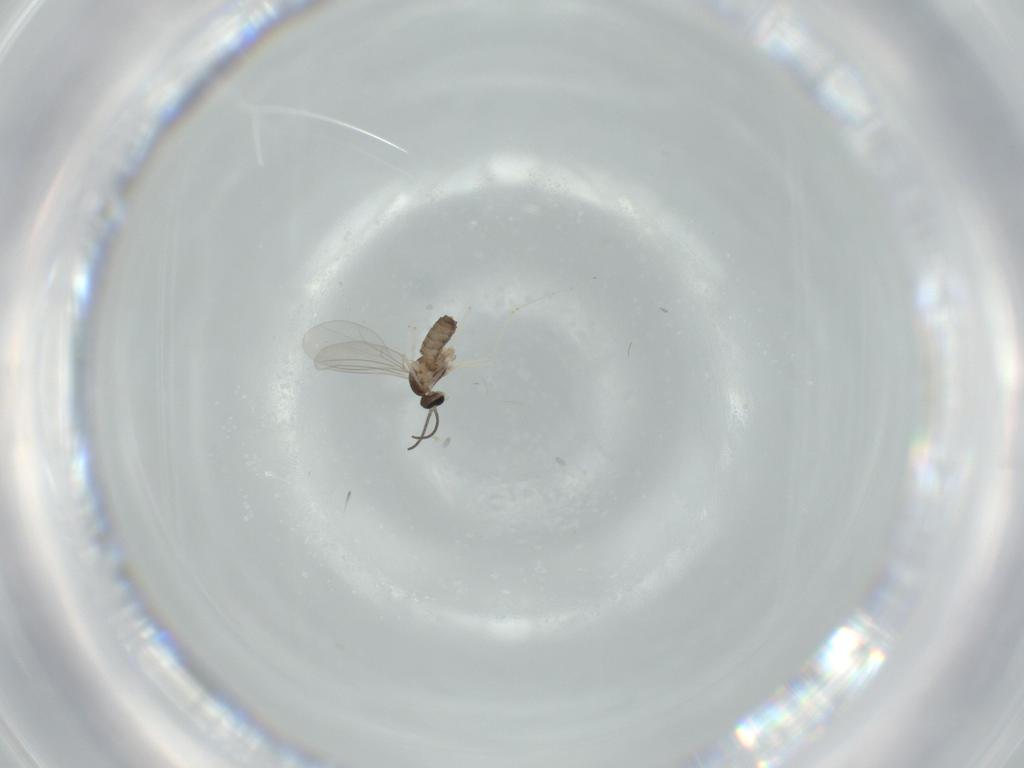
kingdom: Animalia
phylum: Arthropoda
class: Insecta
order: Diptera
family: Cecidomyiidae
